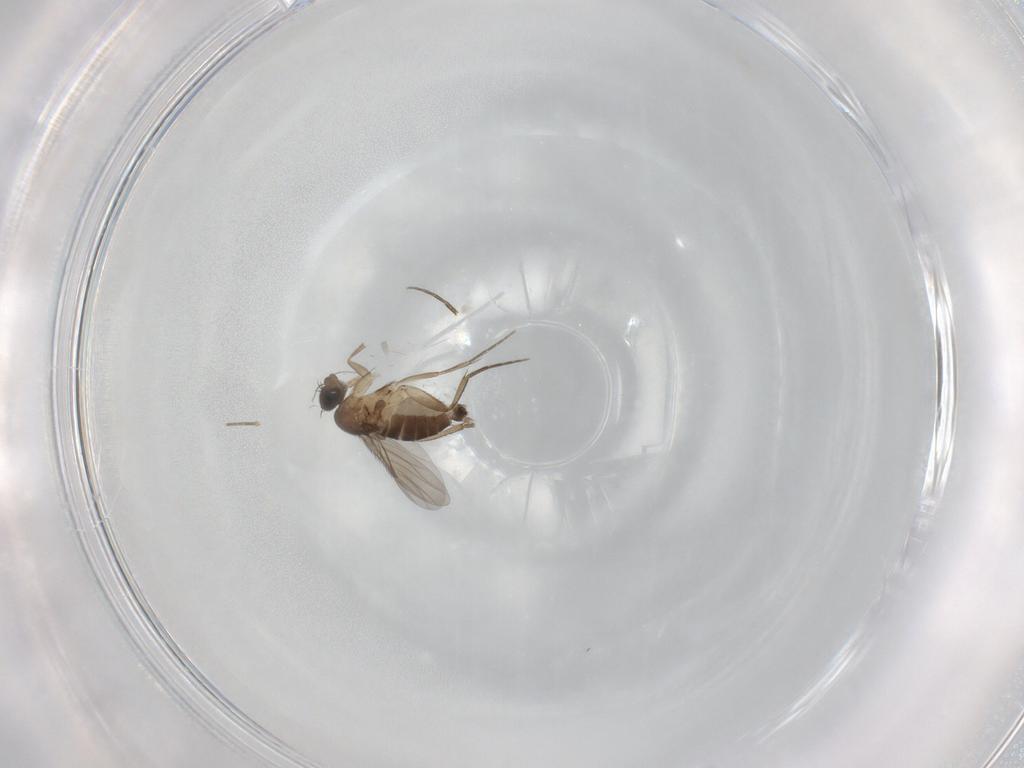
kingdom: Animalia
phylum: Arthropoda
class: Insecta
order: Diptera
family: Phoridae
